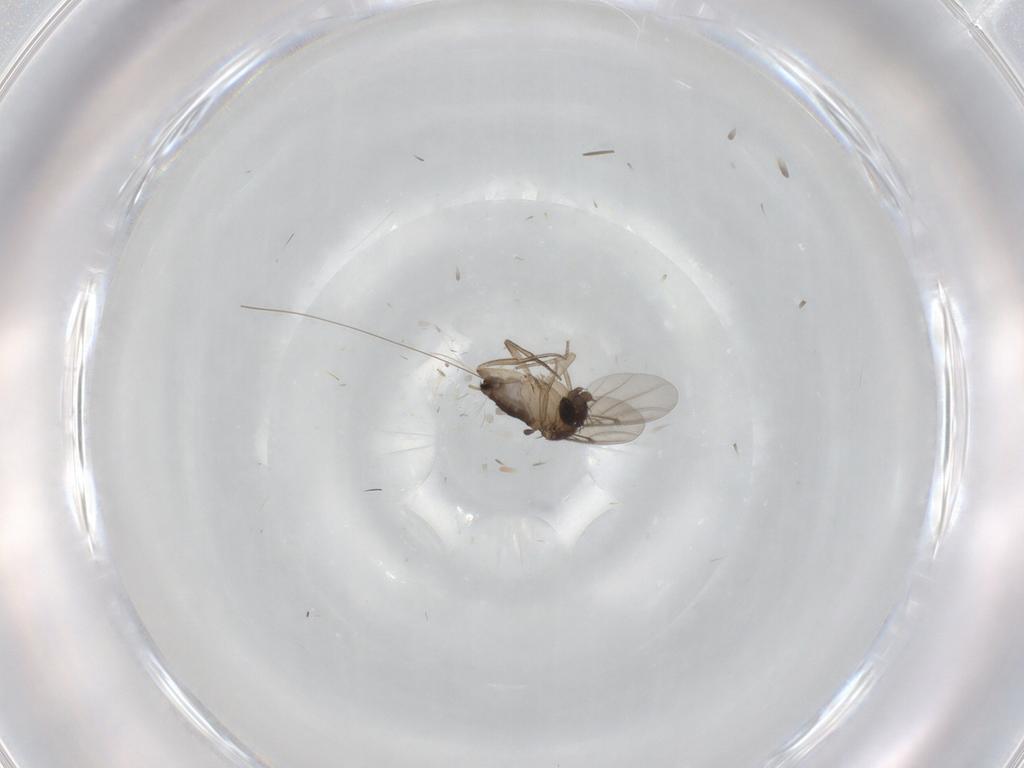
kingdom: Animalia
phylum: Arthropoda
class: Insecta
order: Diptera
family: Phoridae
